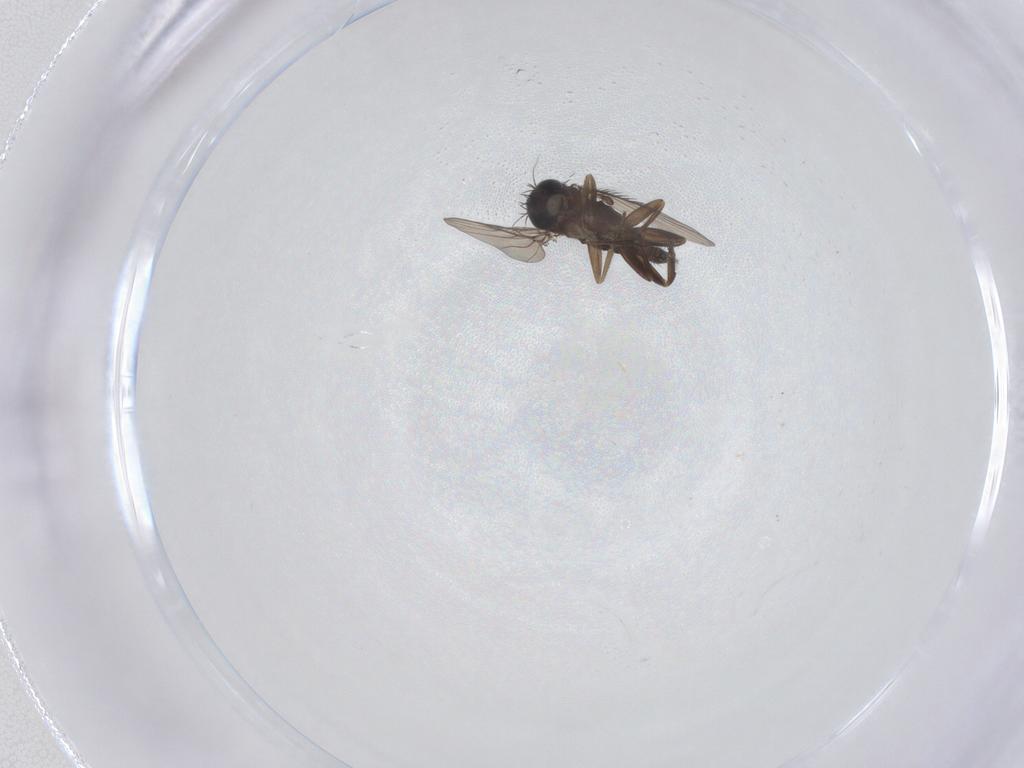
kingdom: Animalia
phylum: Arthropoda
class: Insecta
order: Diptera
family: Phoridae
